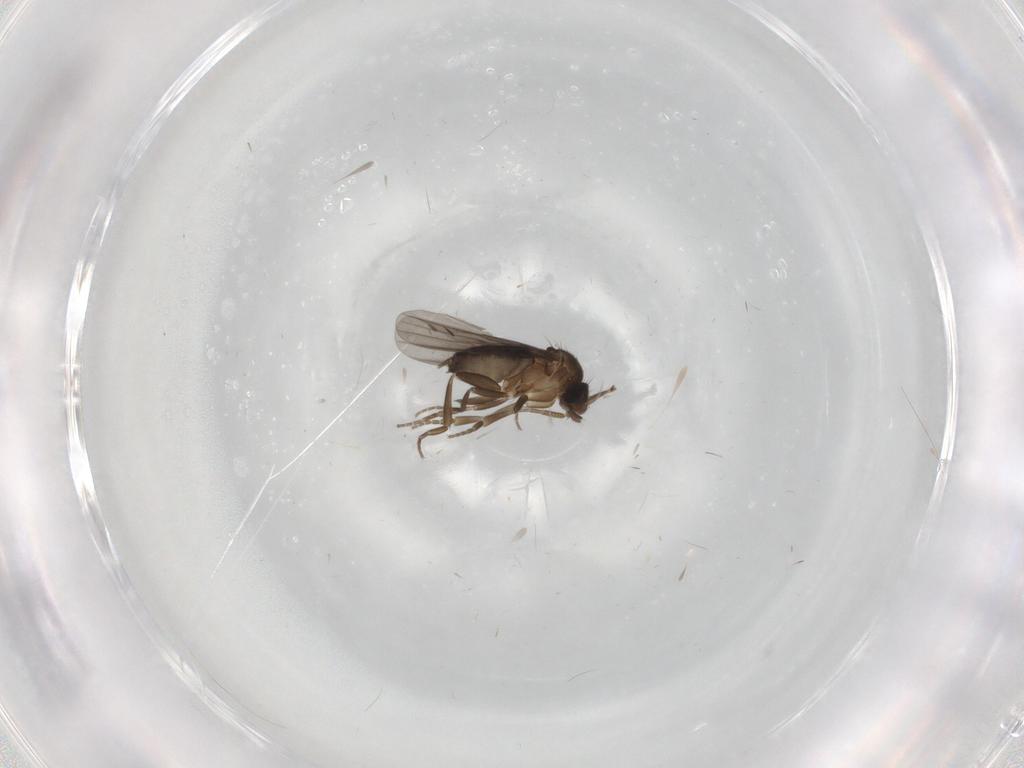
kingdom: Animalia
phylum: Arthropoda
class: Insecta
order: Diptera
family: Phoridae
